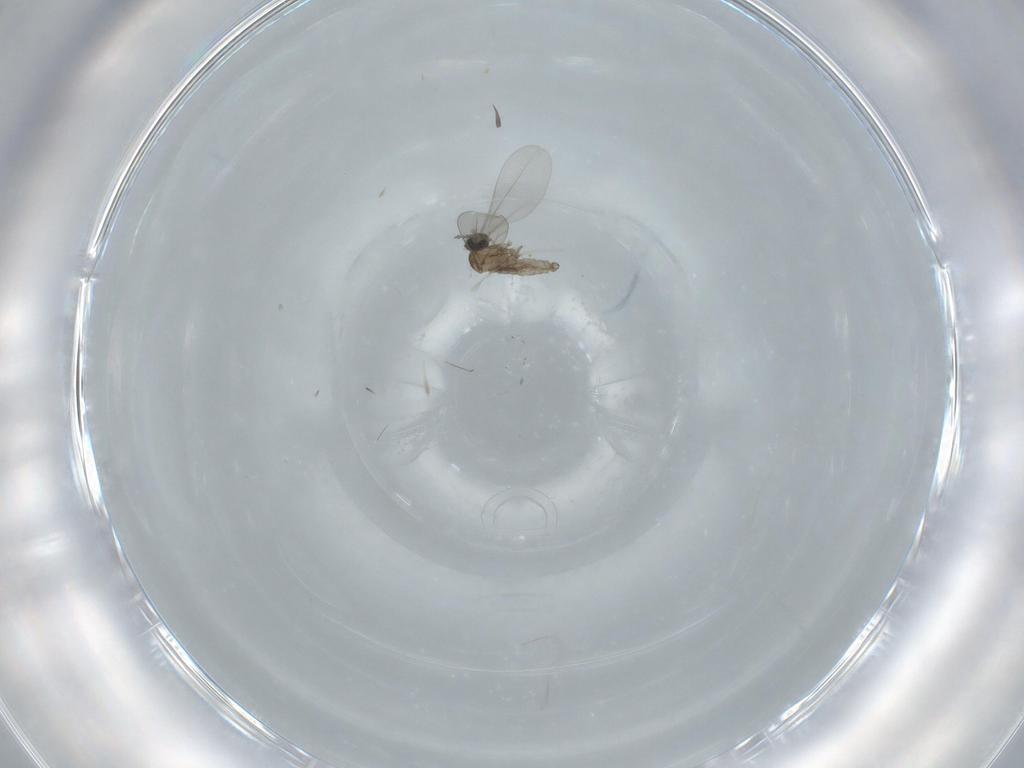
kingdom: Animalia
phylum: Arthropoda
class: Insecta
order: Diptera
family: Cecidomyiidae
